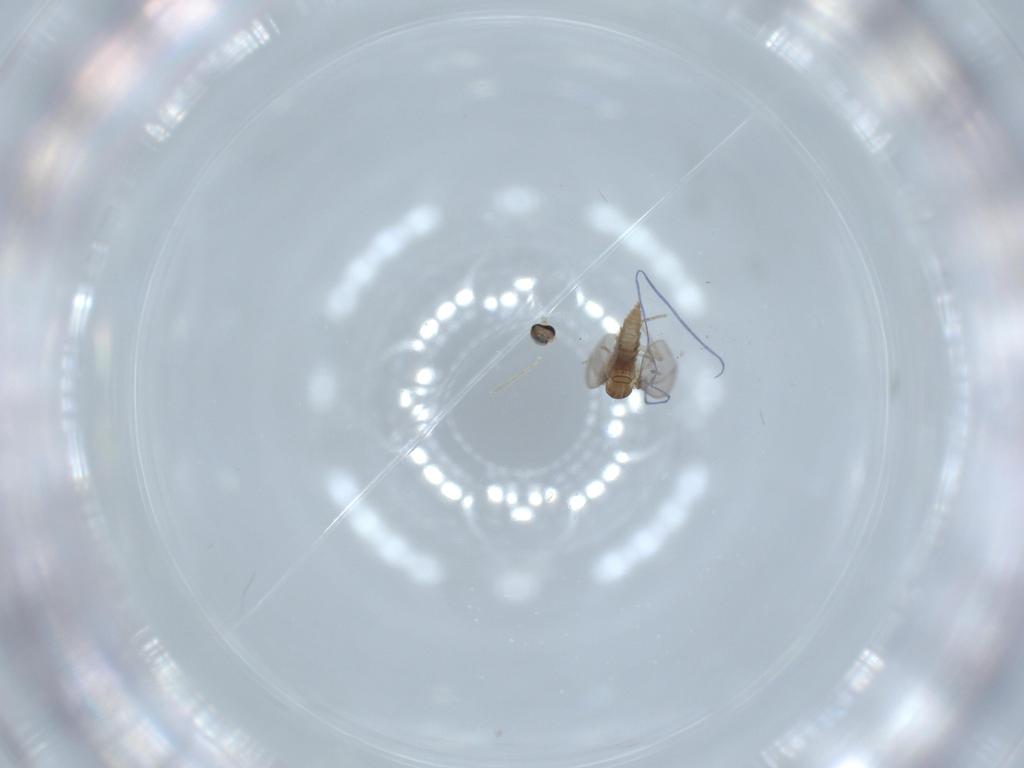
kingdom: Animalia
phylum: Arthropoda
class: Insecta
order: Diptera
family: Cecidomyiidae
